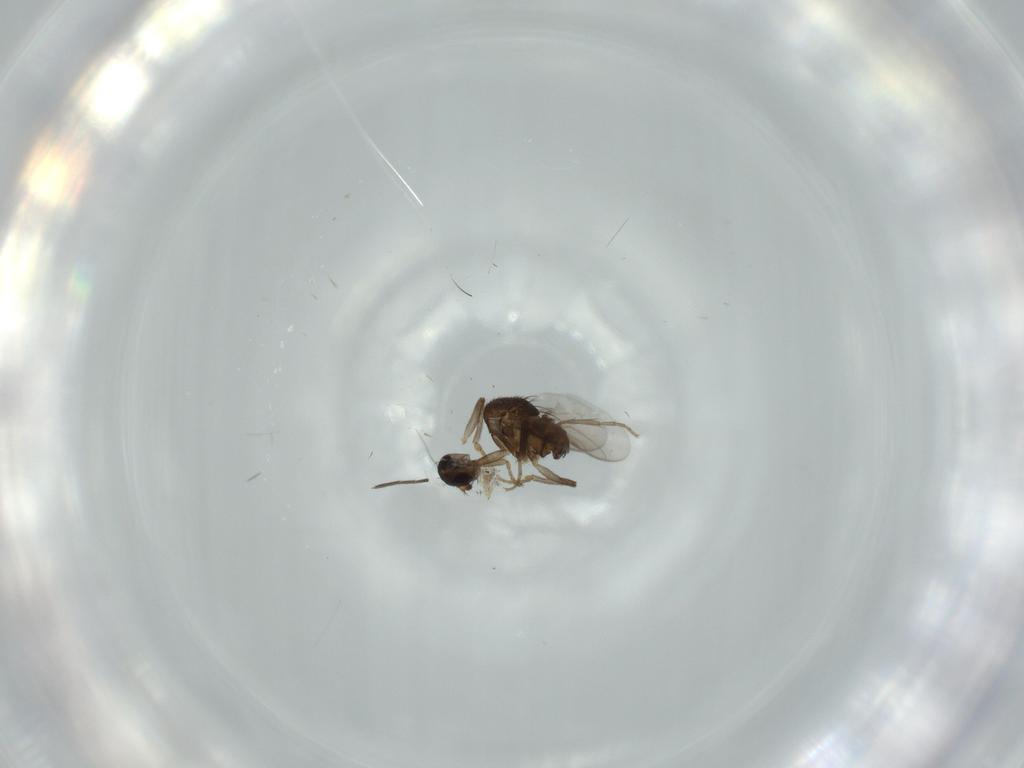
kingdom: Animalia
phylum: Arthropoda
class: Insecta
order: Diptera
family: Sphaeroceridae
